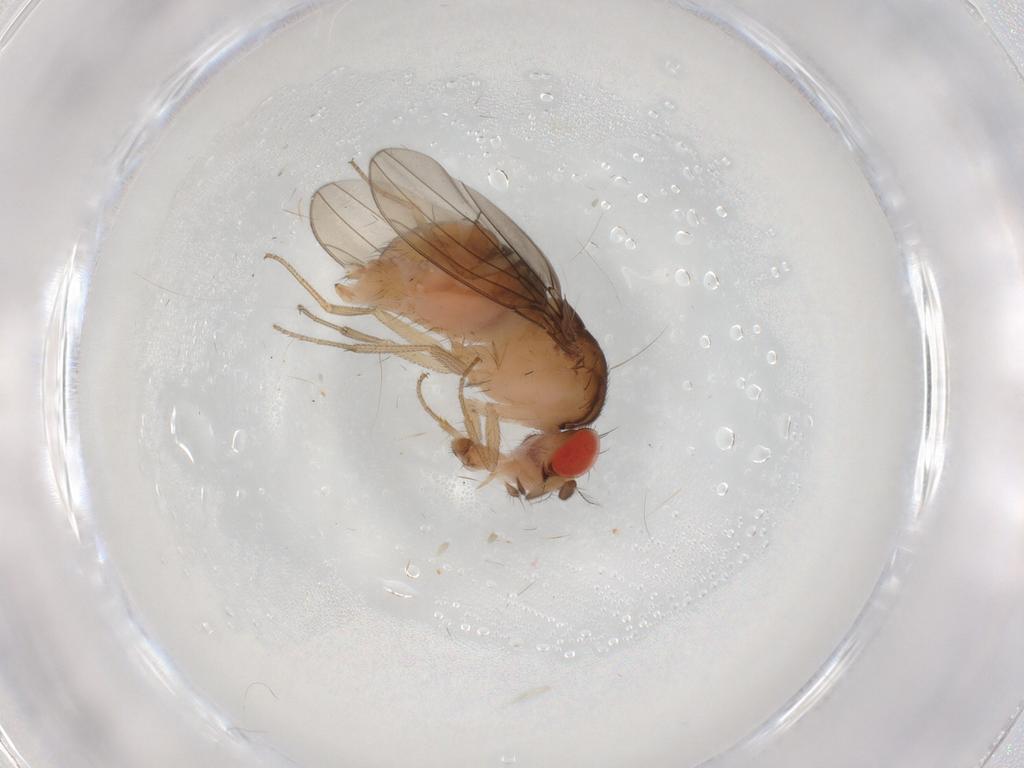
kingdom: Animalia
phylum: Arthropoda
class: Insecta
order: Diptera
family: Drosophilidae
